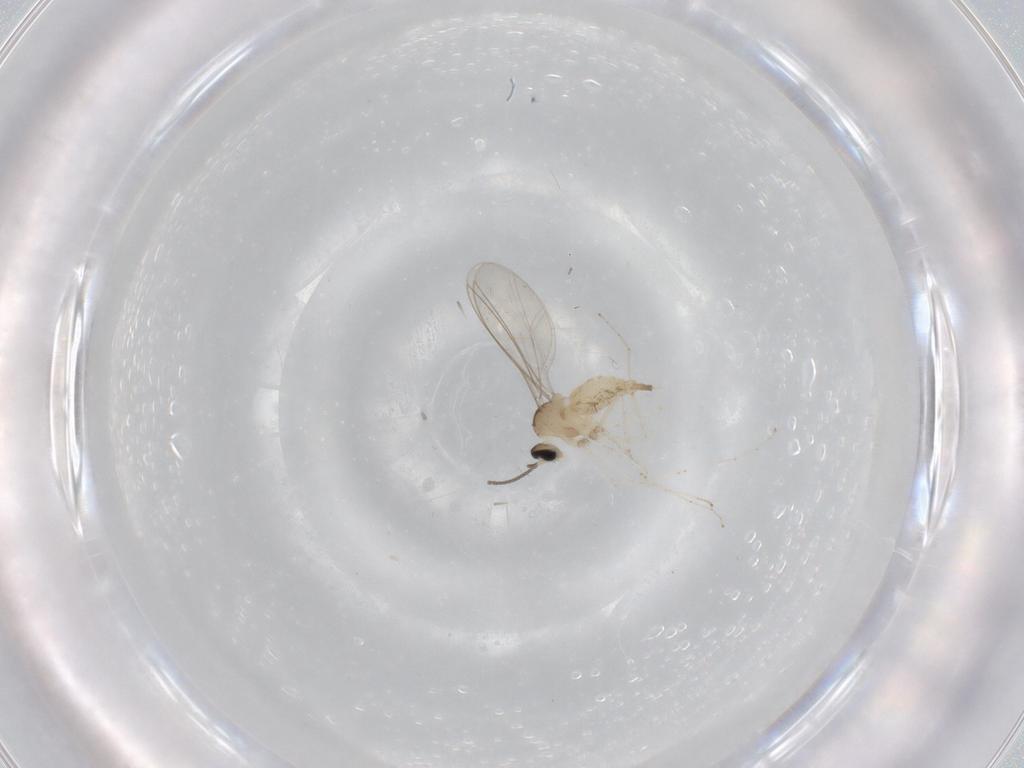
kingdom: Animalia
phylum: Arthropoda
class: Insecta
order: Diptera
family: Cecidomyiidae
